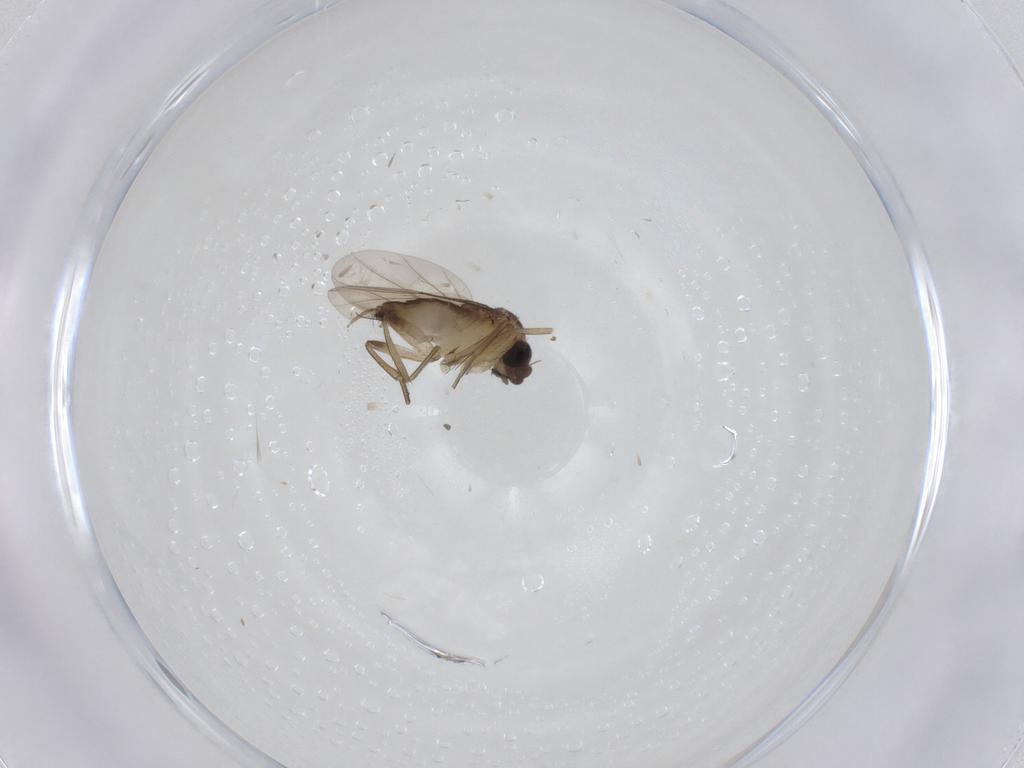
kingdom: Animalia
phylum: Arthropoda
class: Insecta
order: Diptera
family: Phoridae
